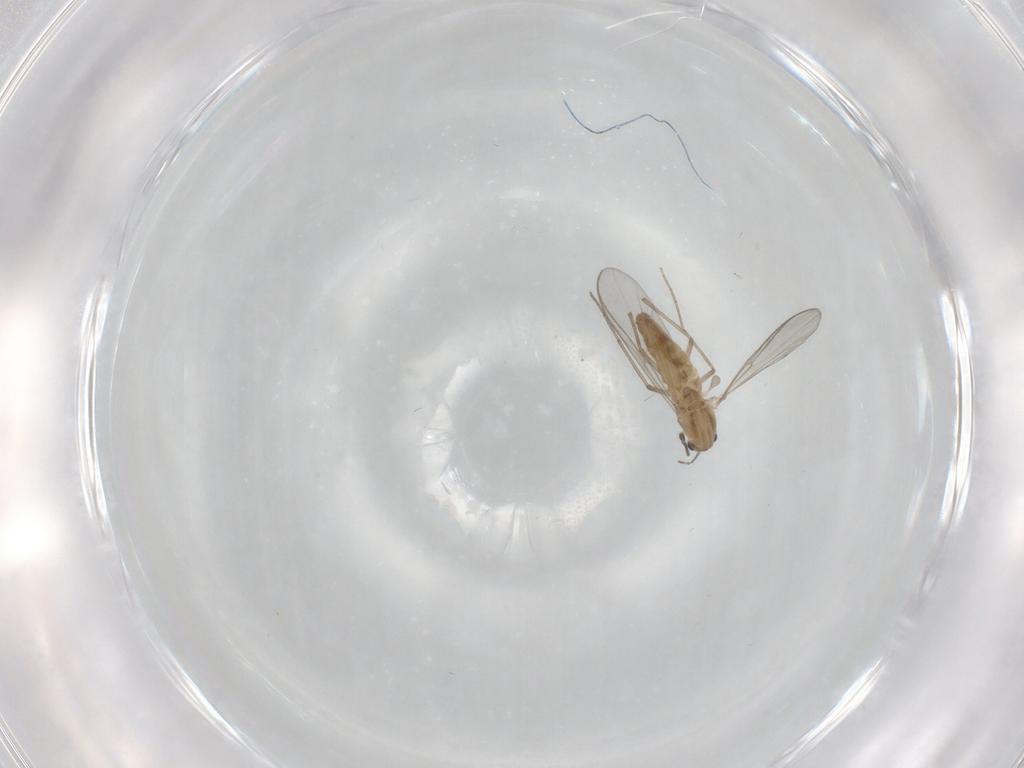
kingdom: Animalia
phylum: Arthropoda
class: Insecta
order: Diptera
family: Chironomidae
